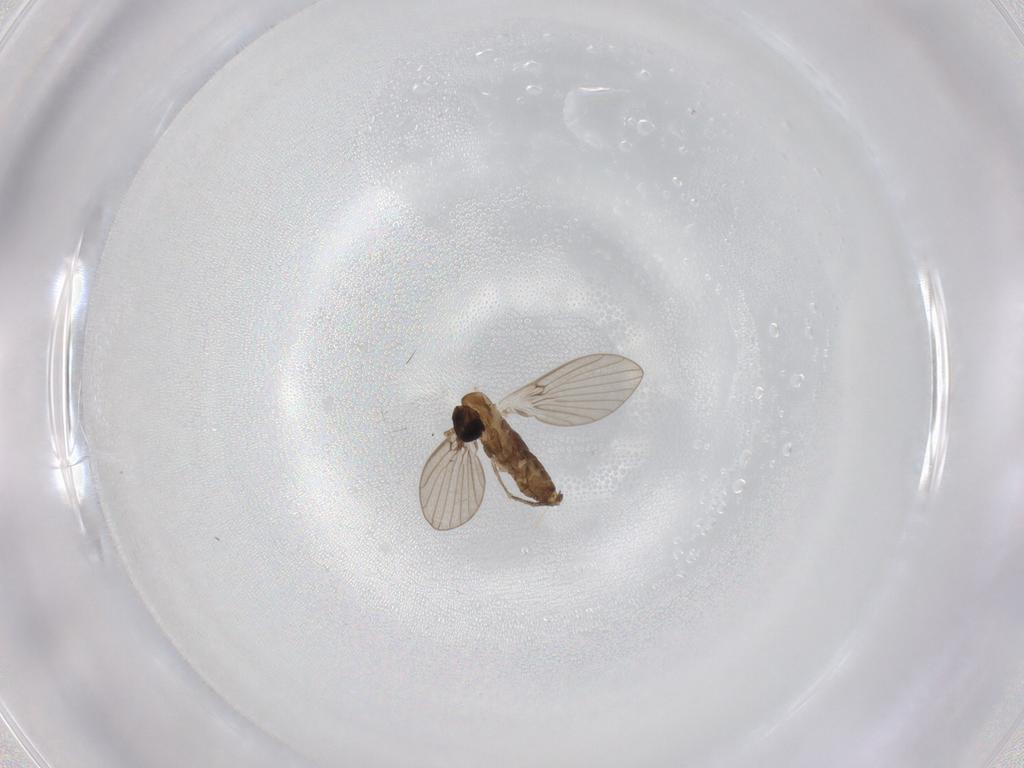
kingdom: Animalia
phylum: Arthropoda
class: Insecta
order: Diptera
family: Psychodidae
